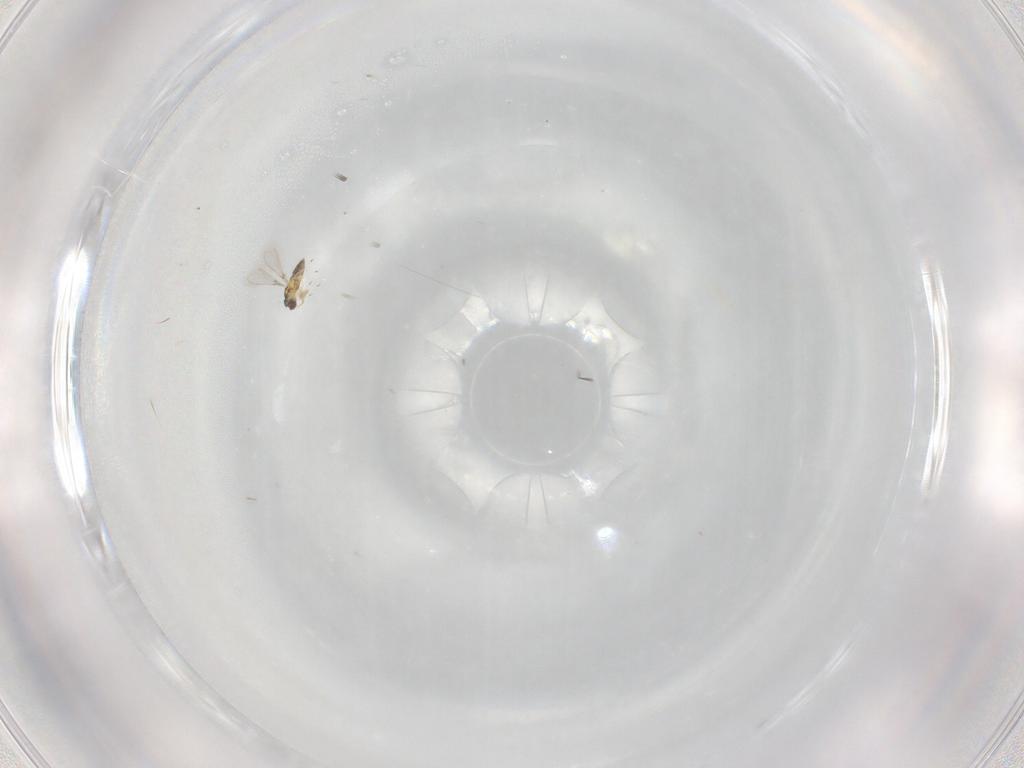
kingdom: Animalia
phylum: Arthropoda
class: Insecta
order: Hymenoptera
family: Mymaridae
